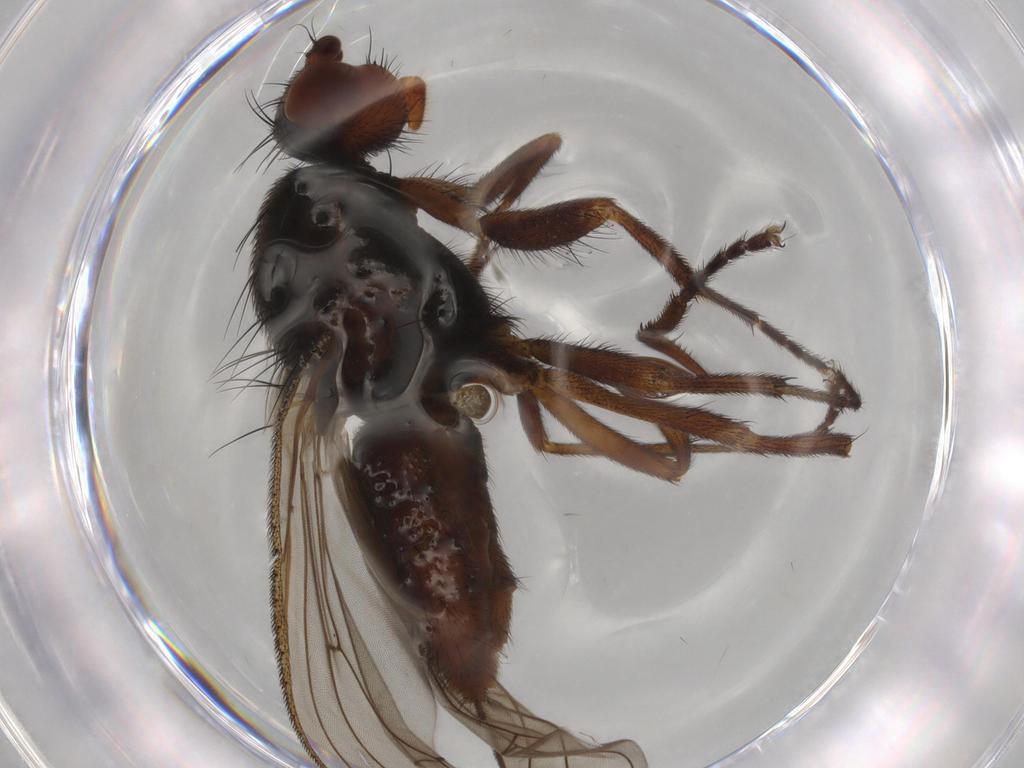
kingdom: Animalia
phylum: Arthropoda
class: Insecta
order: Diptera
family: Heleomyzidae
